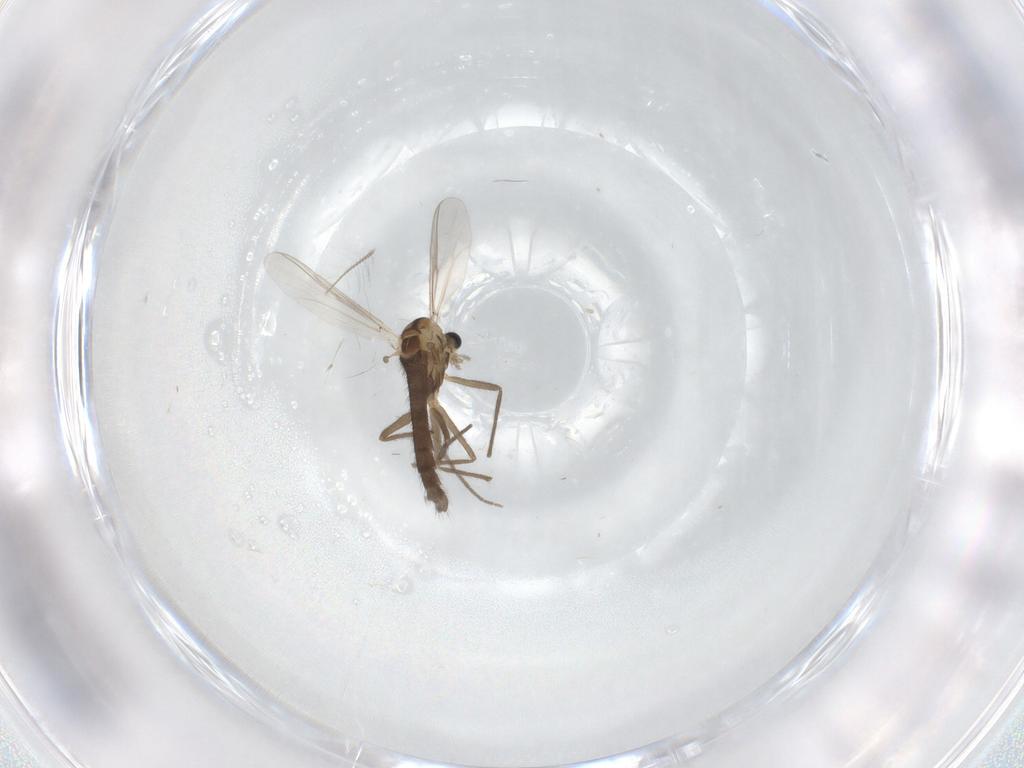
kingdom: Animalia
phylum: Arthropoda
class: Insecta
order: Diptera
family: Chironomidae
